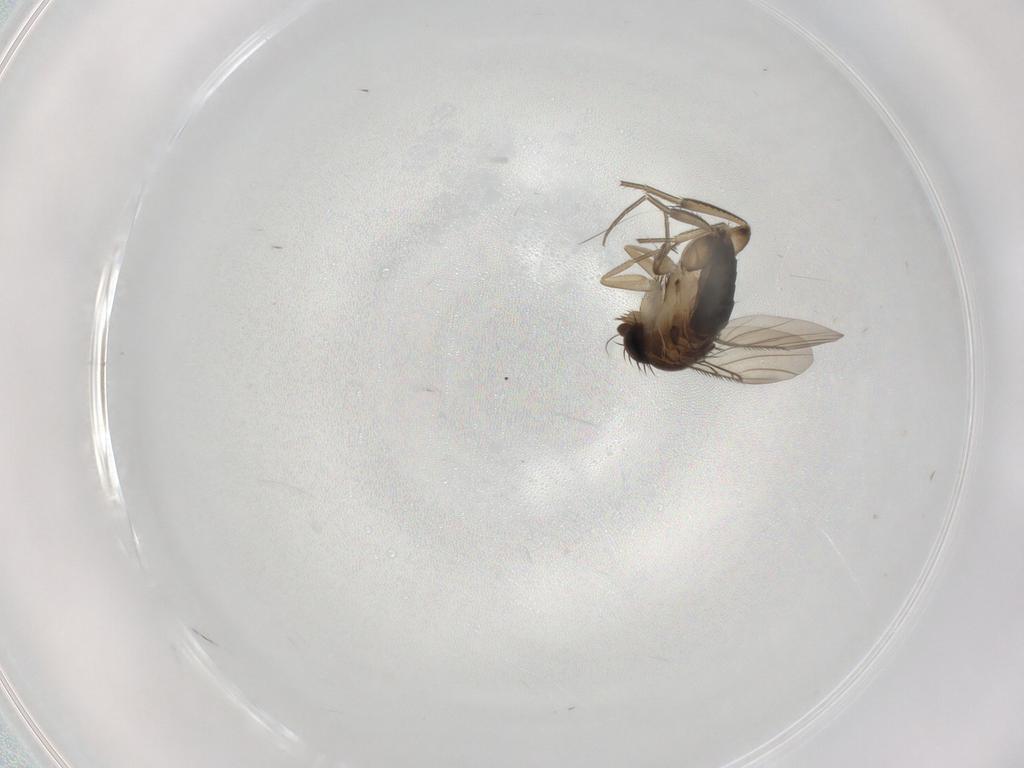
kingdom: Animalia
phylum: Arthropoda
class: Insecta
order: Diptera
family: Phoridae
